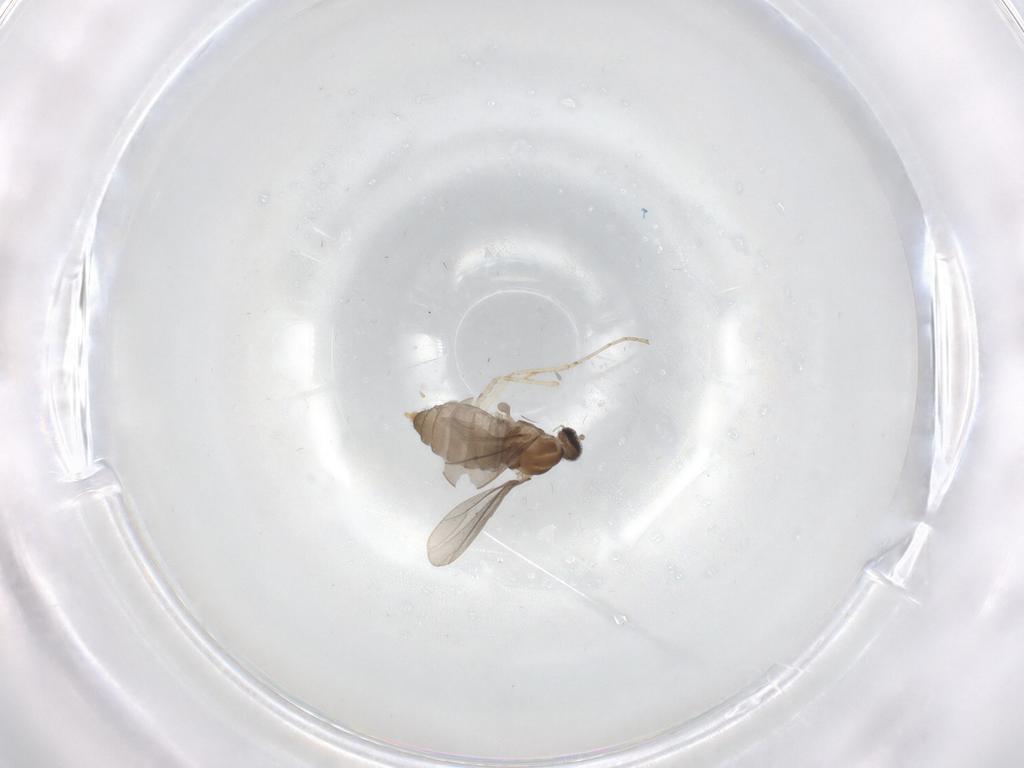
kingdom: Animalia
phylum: Arthropoda
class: Insecta
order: Diptera
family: Cecidomyiidae
